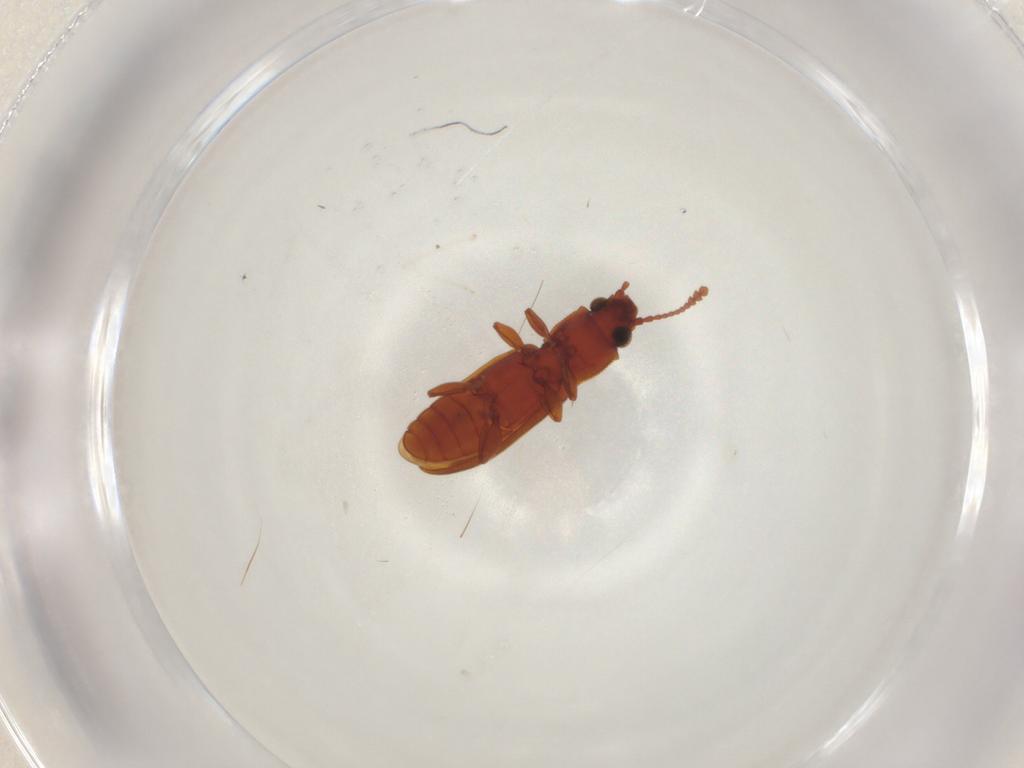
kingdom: Animalia
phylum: Arthropoda
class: Insecta
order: Coleoptera
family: Silvanidae
